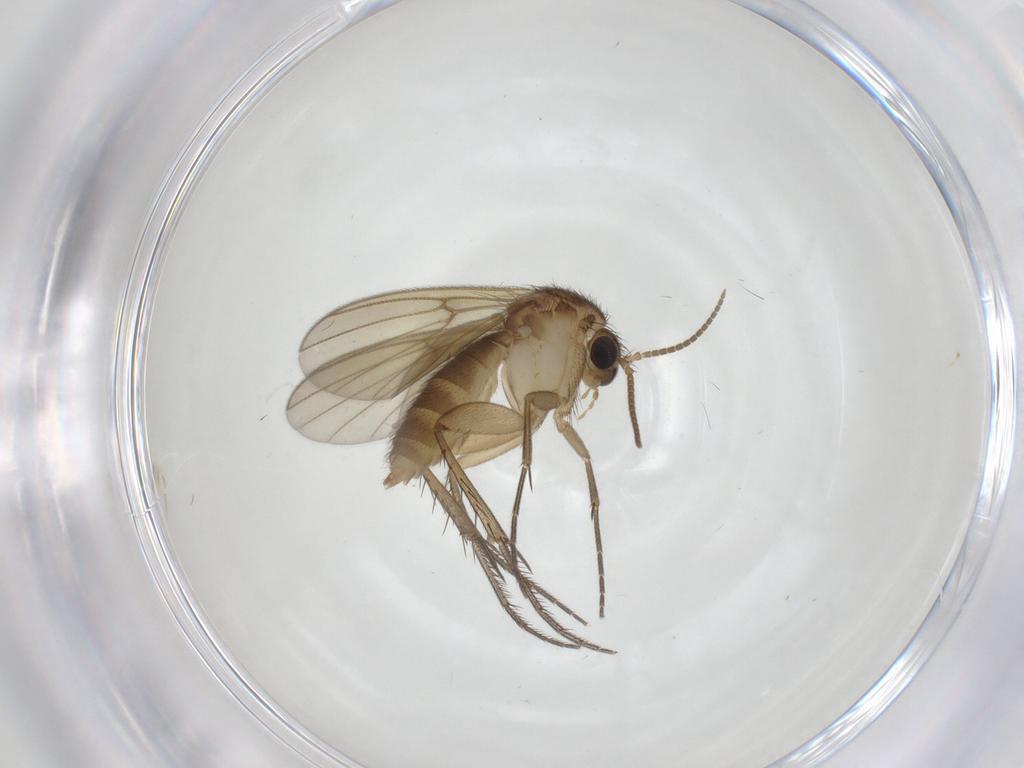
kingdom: Animalia
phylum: Arthropoda
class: Insecta
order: Diptera
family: Mycetophilidae
